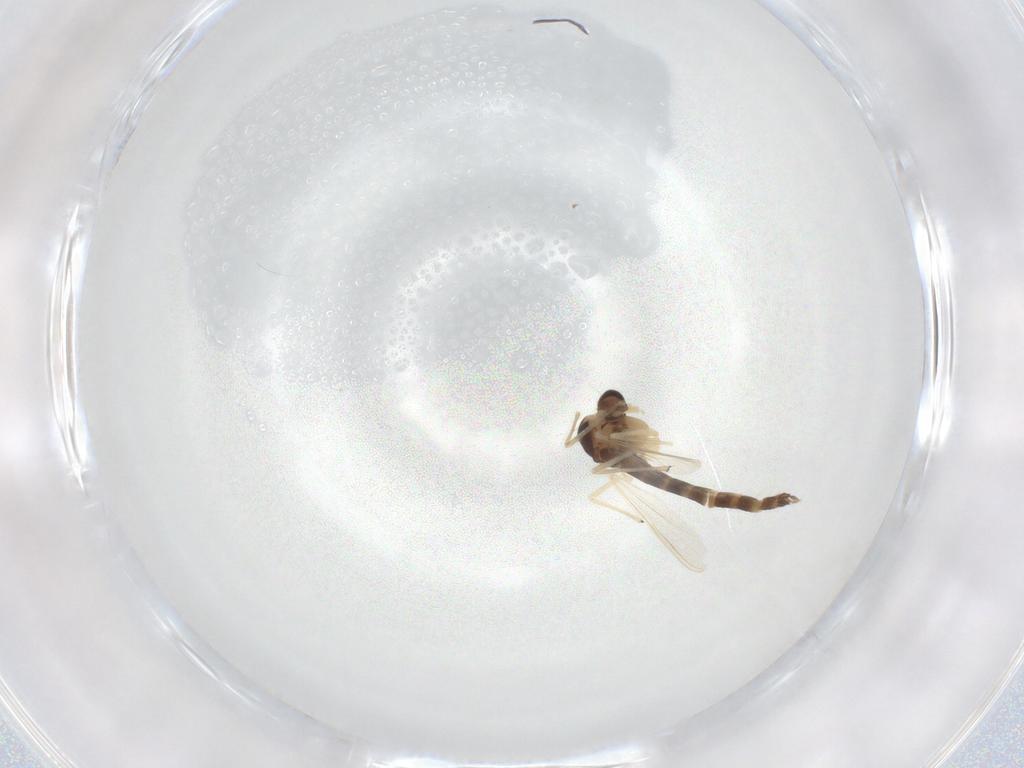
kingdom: Animalia
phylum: Arthropoda
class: Insecta
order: Diptera
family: Chironomidae
